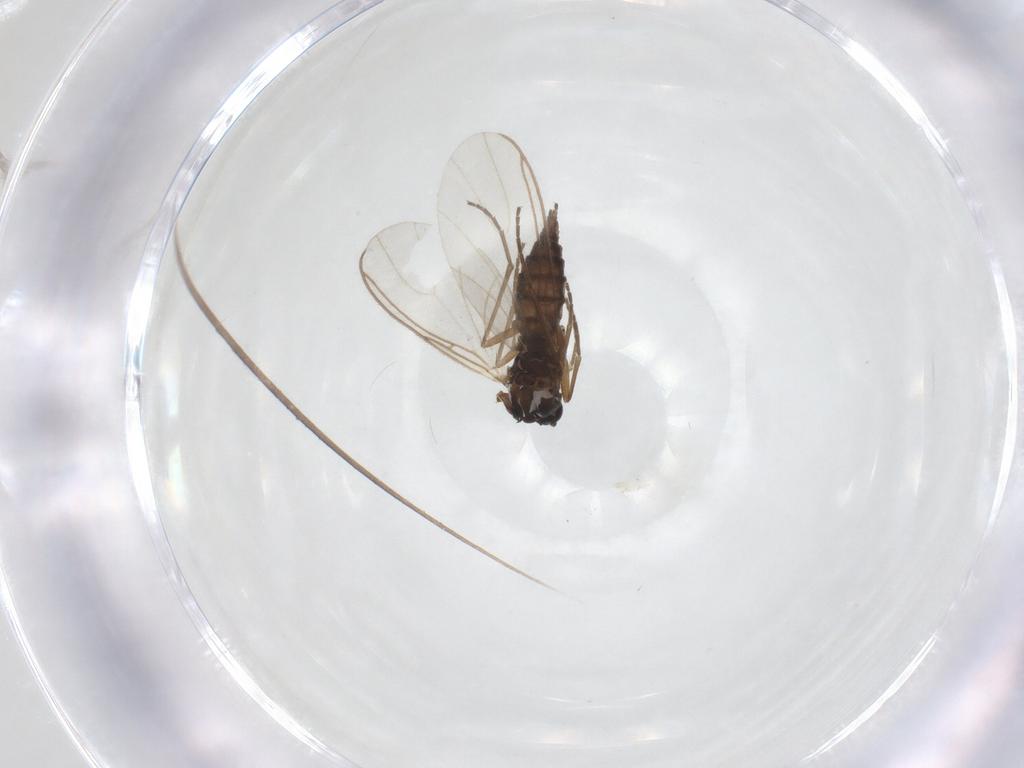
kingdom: Animalia
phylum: Arthropoda
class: Insecta
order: Diptera
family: Sciaridae
